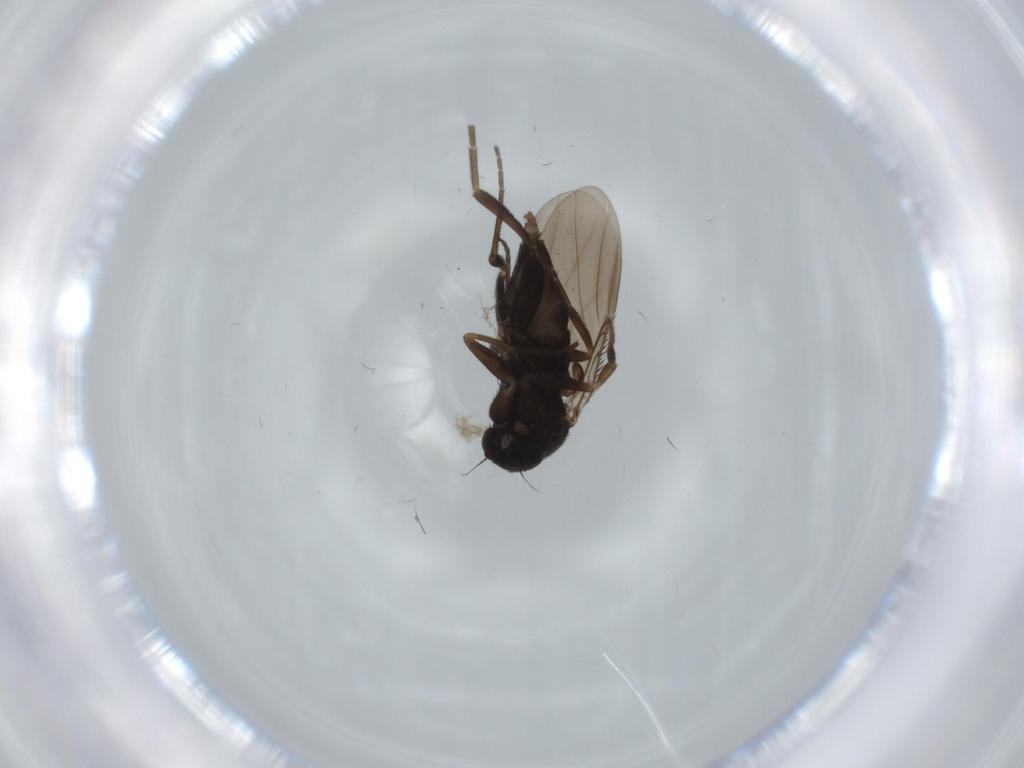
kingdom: Animalia
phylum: Arthropoda
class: Insecta
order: Diptera
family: Phoridae
